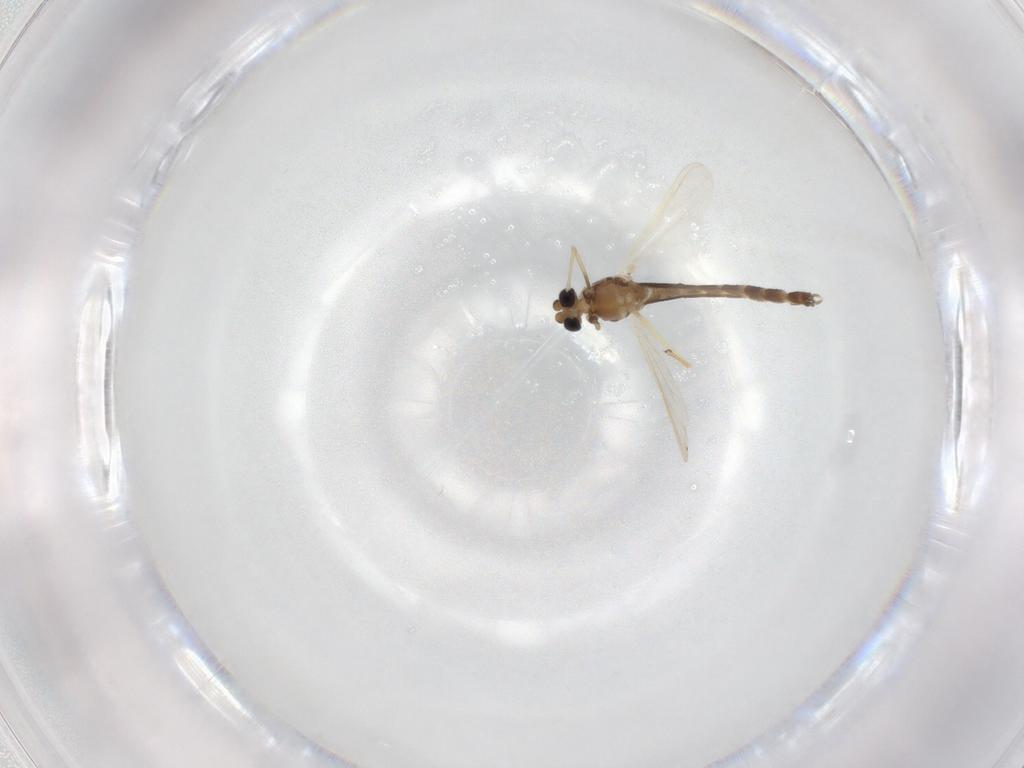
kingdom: Animalia
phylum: Arthropoda
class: Insecta
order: Diptera
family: Chironomidae
